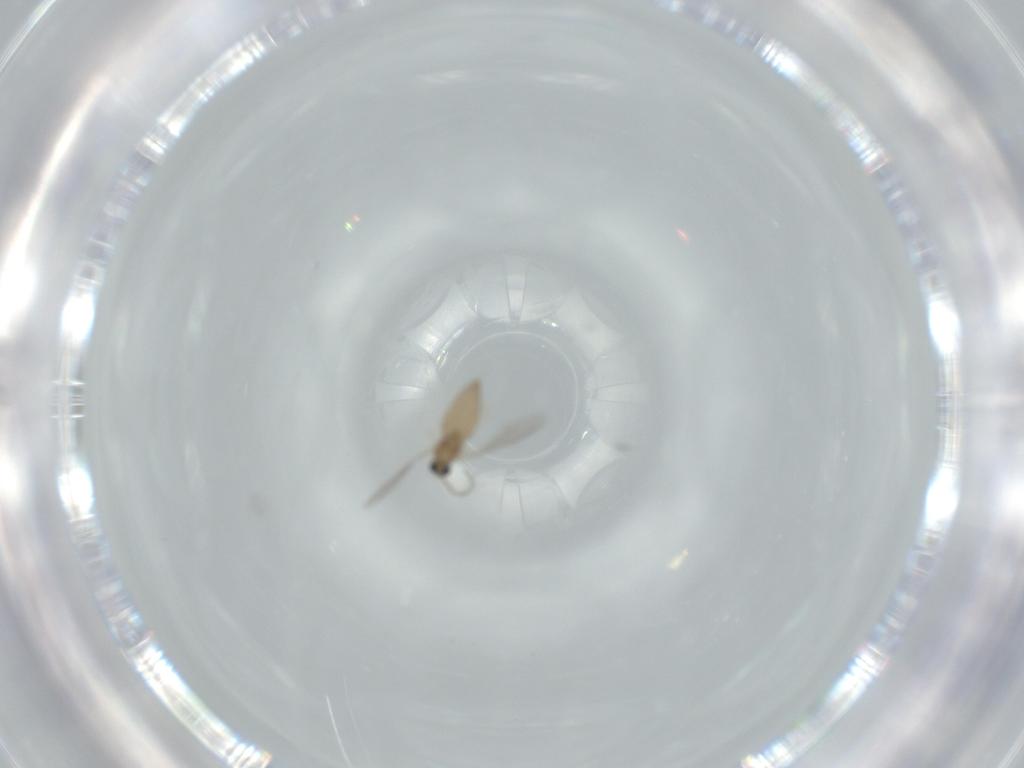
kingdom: Animalia
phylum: Arthropoda
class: Insecta
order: Diptera
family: Cecidomyiidae
